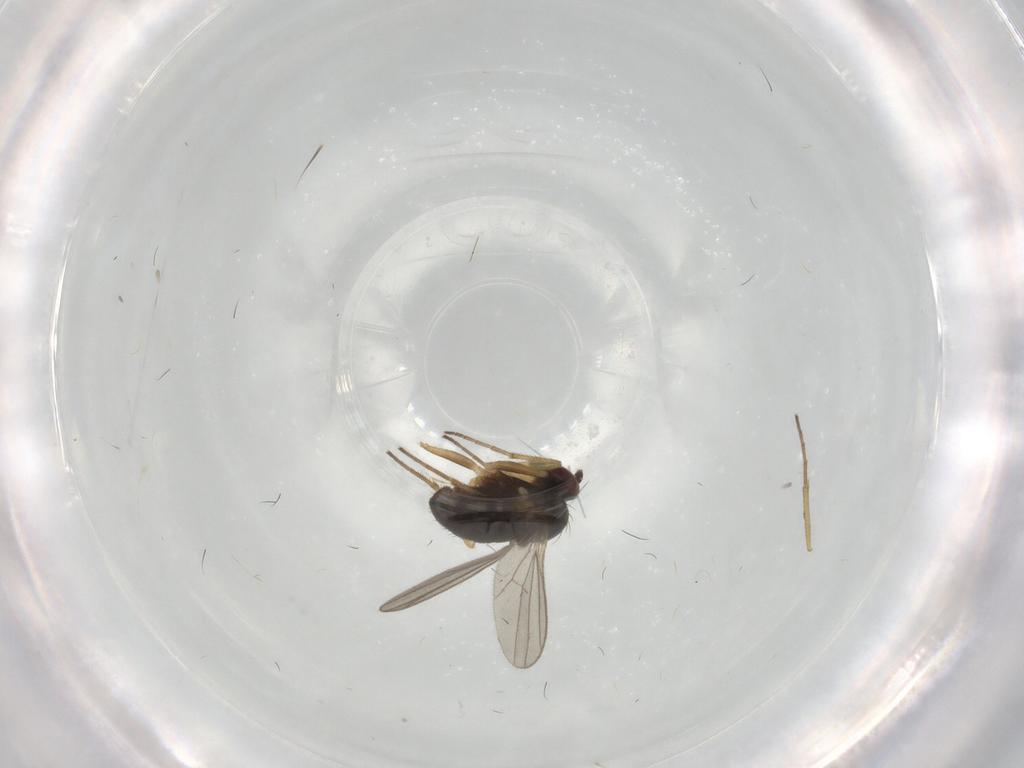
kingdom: Animalia
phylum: Arthropoda
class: Insecta
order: Diptera
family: Dolichopodidae
